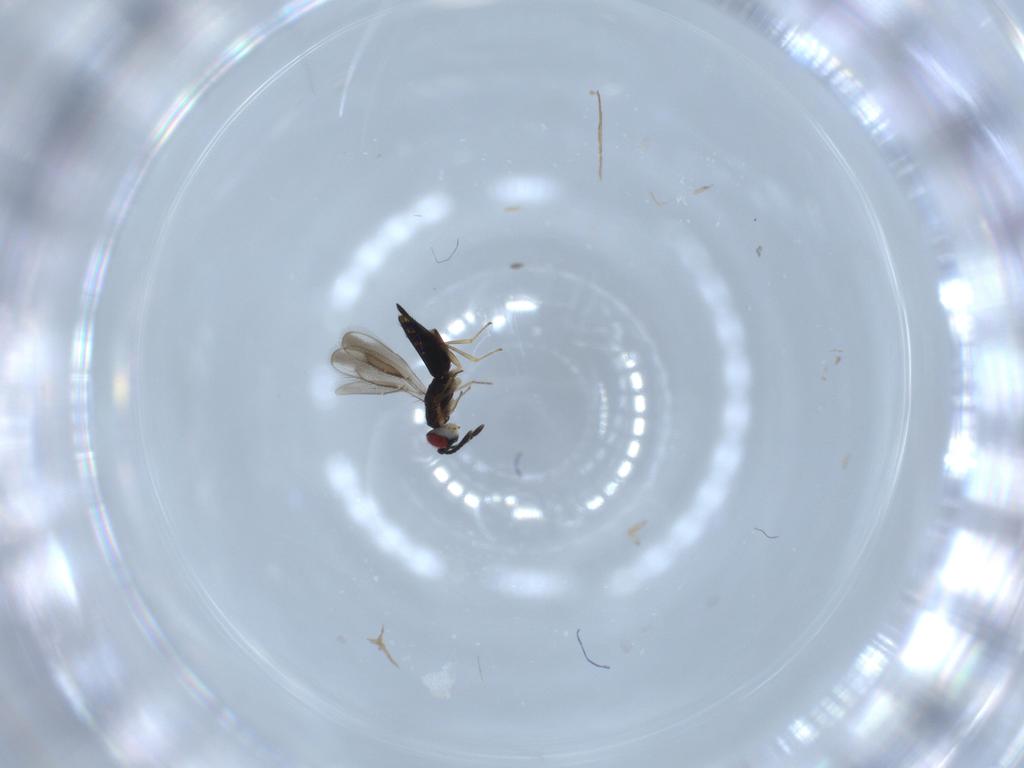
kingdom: Animalia
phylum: Arthropoda
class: Insecta
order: Hymenoptera
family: Pteromalidae
